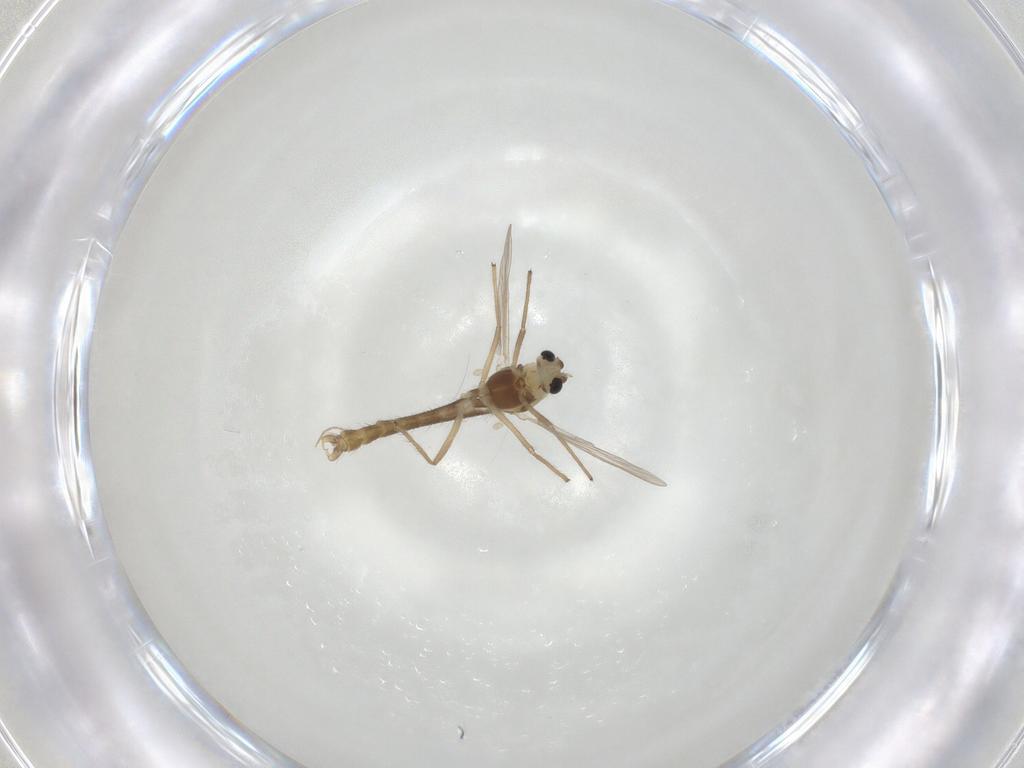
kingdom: Animalia
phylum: Arthropoda
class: Insecta
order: Diptera
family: Chironomidae
